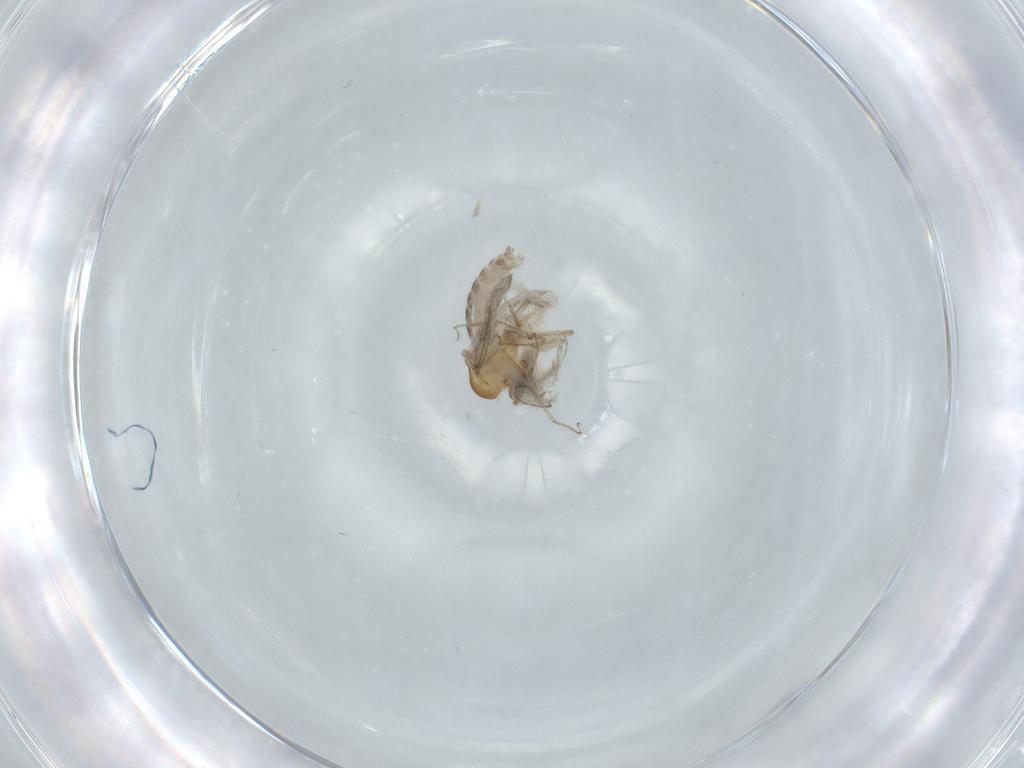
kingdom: Animalia
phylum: Arthropoda
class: Insecta
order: Diptera
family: Ceratopogonidae
